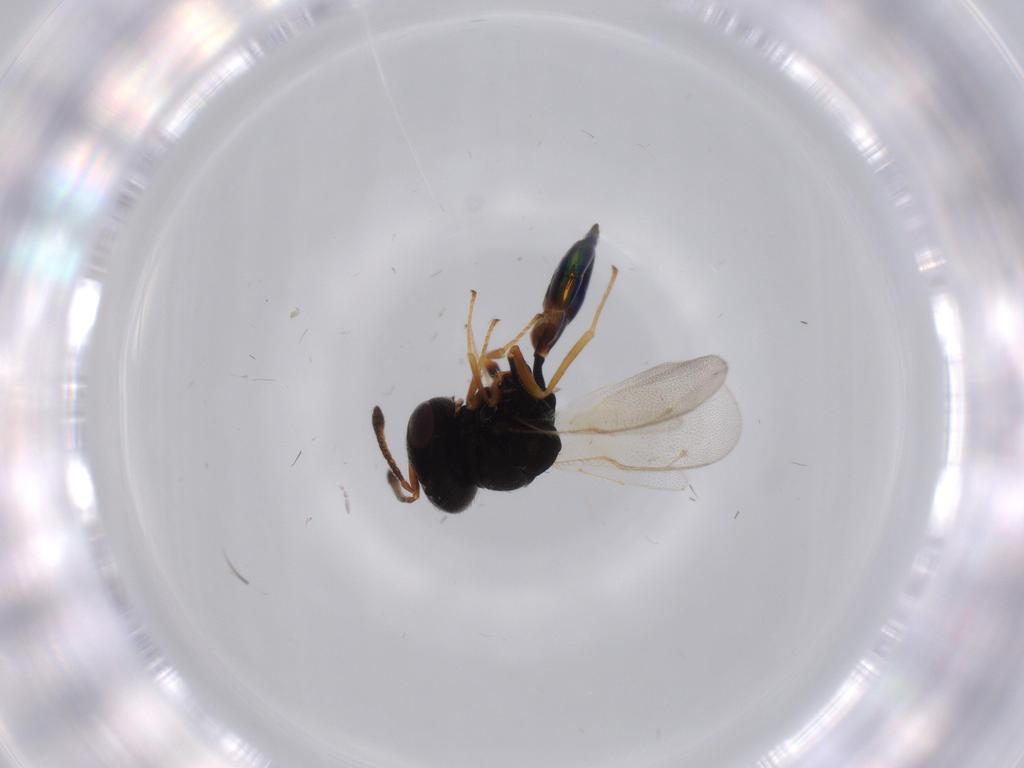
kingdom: Animalia
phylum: Arthropoda
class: Insecta
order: Hymenoptera
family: Pteromalidae
